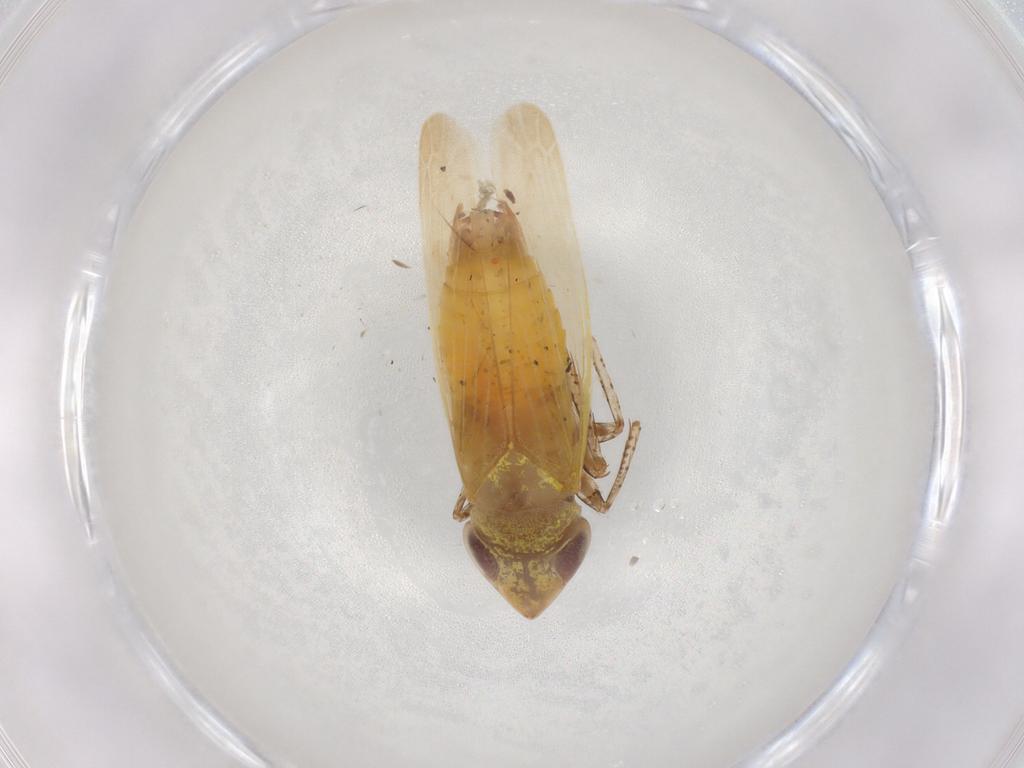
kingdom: Animalia
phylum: Arthropoda
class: Insecta
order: Hemiptera
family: Cicadellidae
